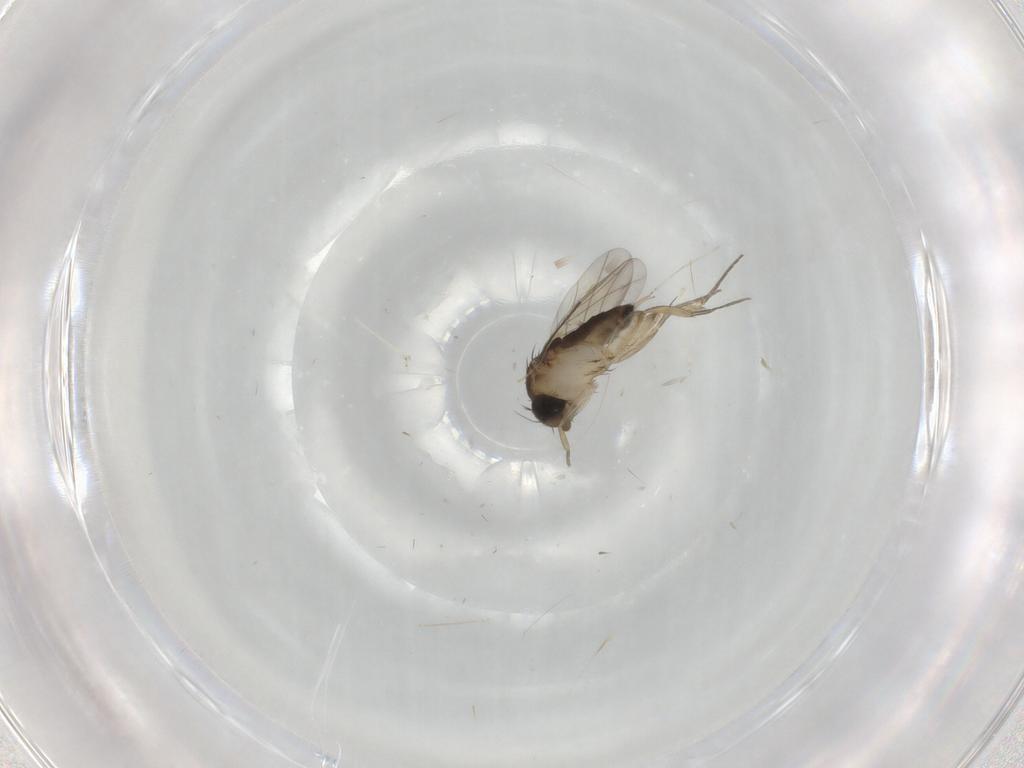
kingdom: Animalia
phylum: Arthropoda
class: Insecta
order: Diptera
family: Phoridae
